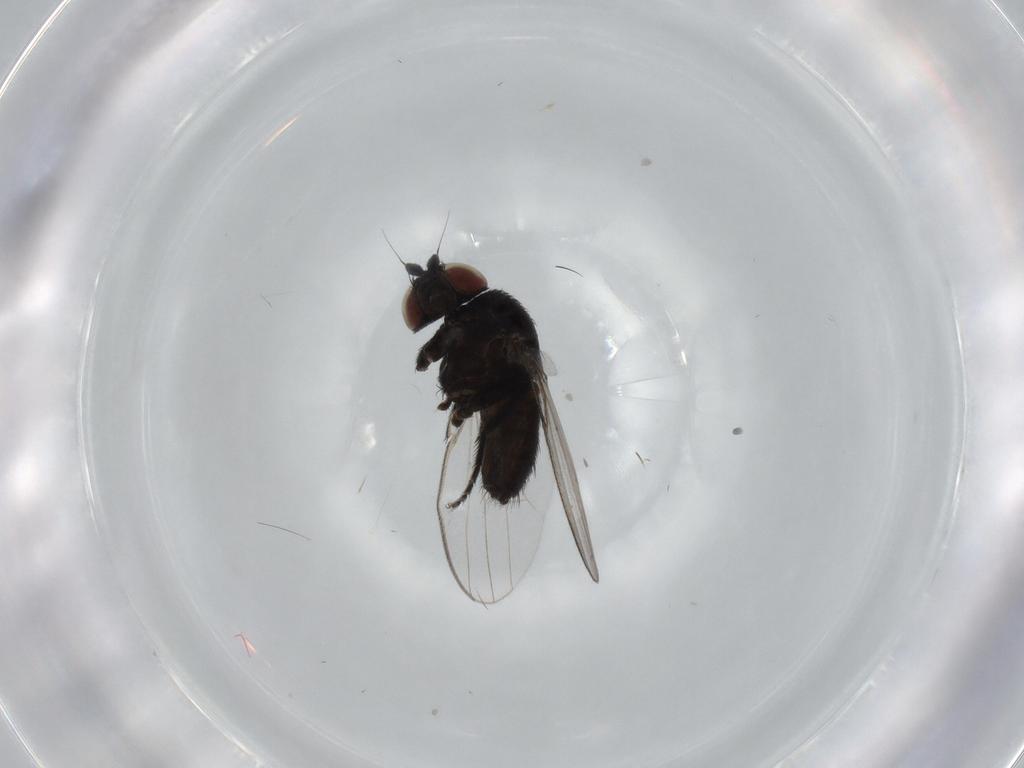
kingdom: Animalia
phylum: Arthropoda
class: Insecta
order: Diptera
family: Milichiidae
